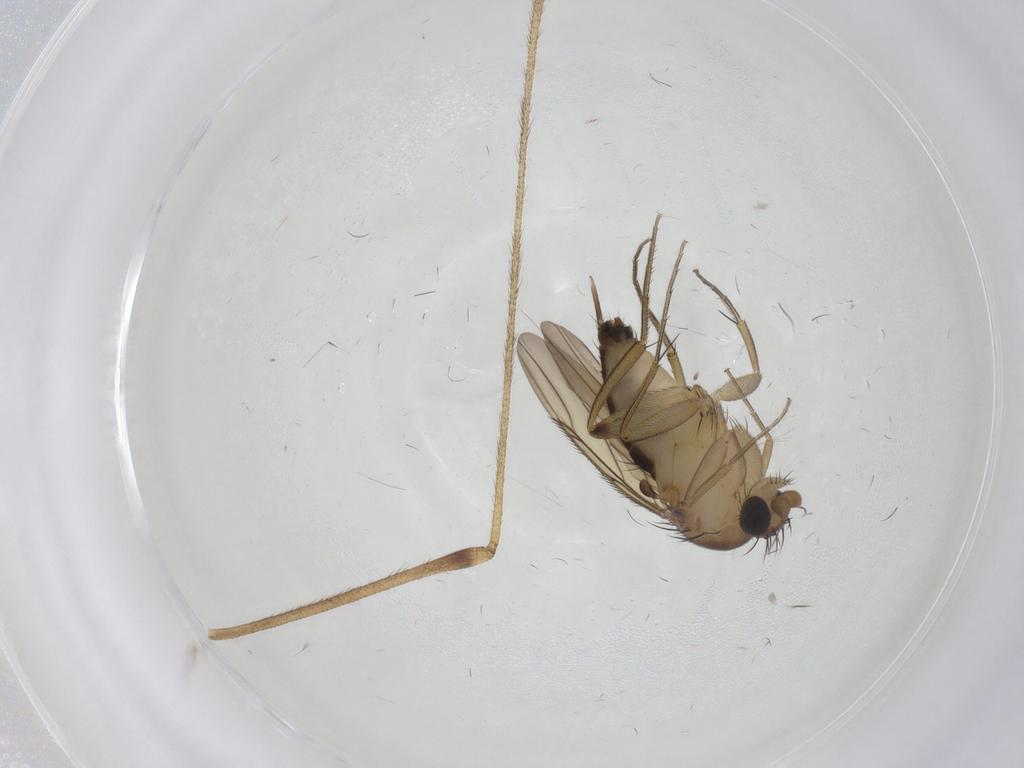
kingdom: Animalia
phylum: Arthropoda
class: Insecta
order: Diptera
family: Phoridae
